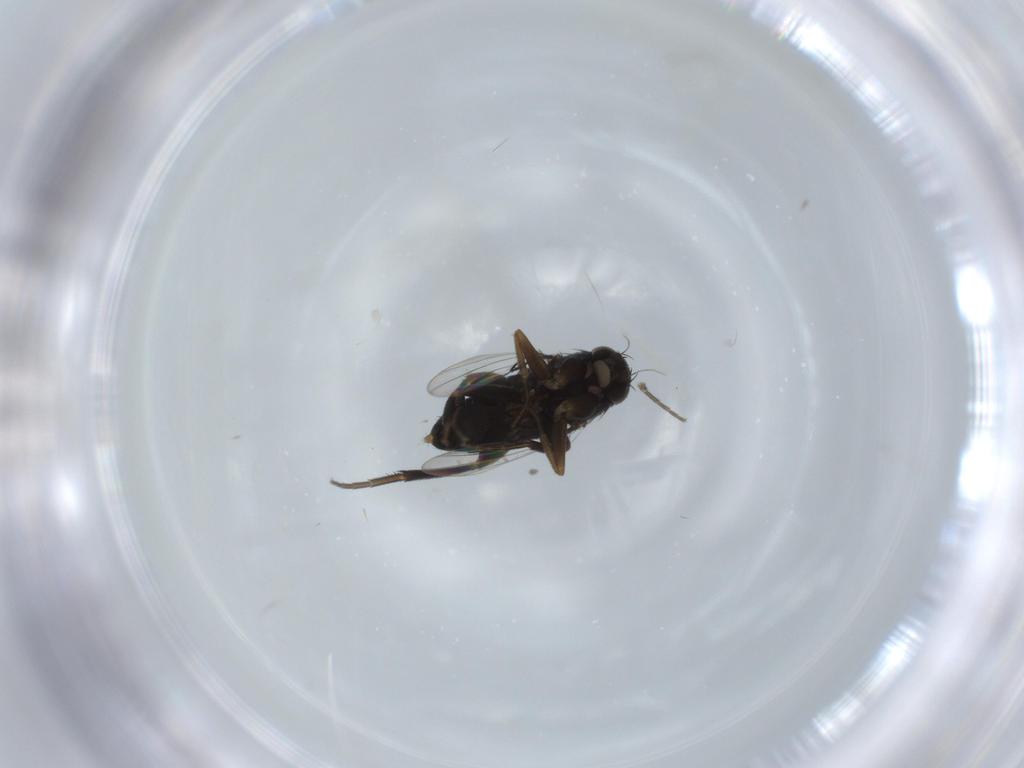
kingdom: Animalia
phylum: Arthropoda
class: Insecta
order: Diptera
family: Phoridae
